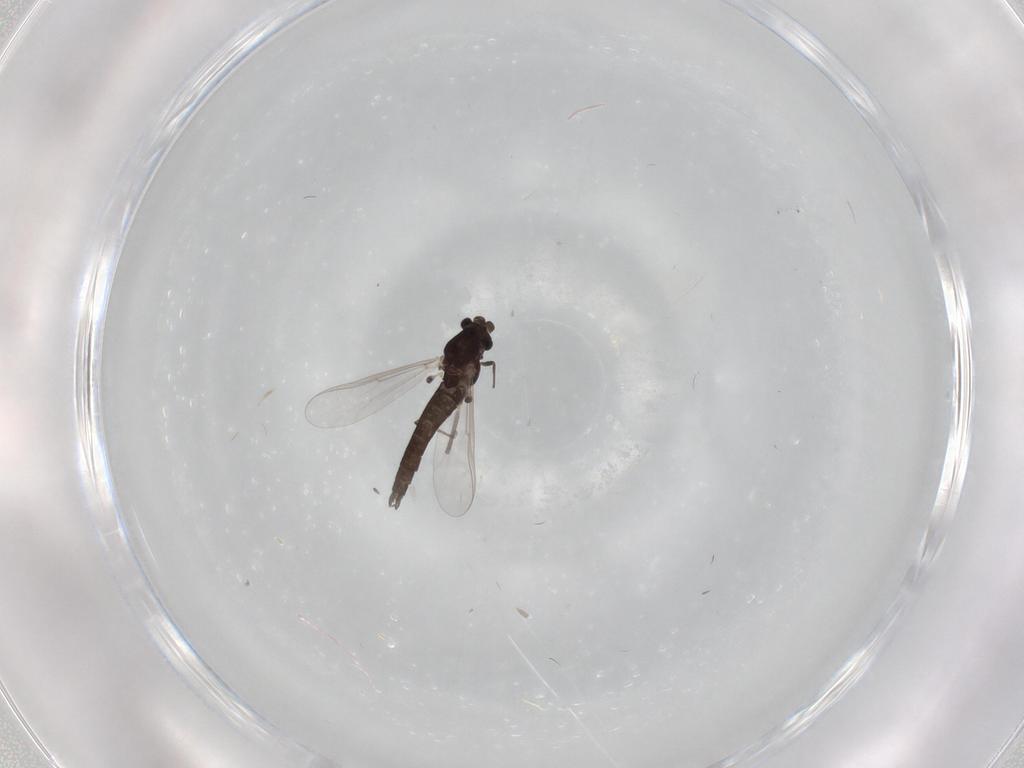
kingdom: Animalia
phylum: Arthropoda
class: Insecta
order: Diptera
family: Chironomidae
